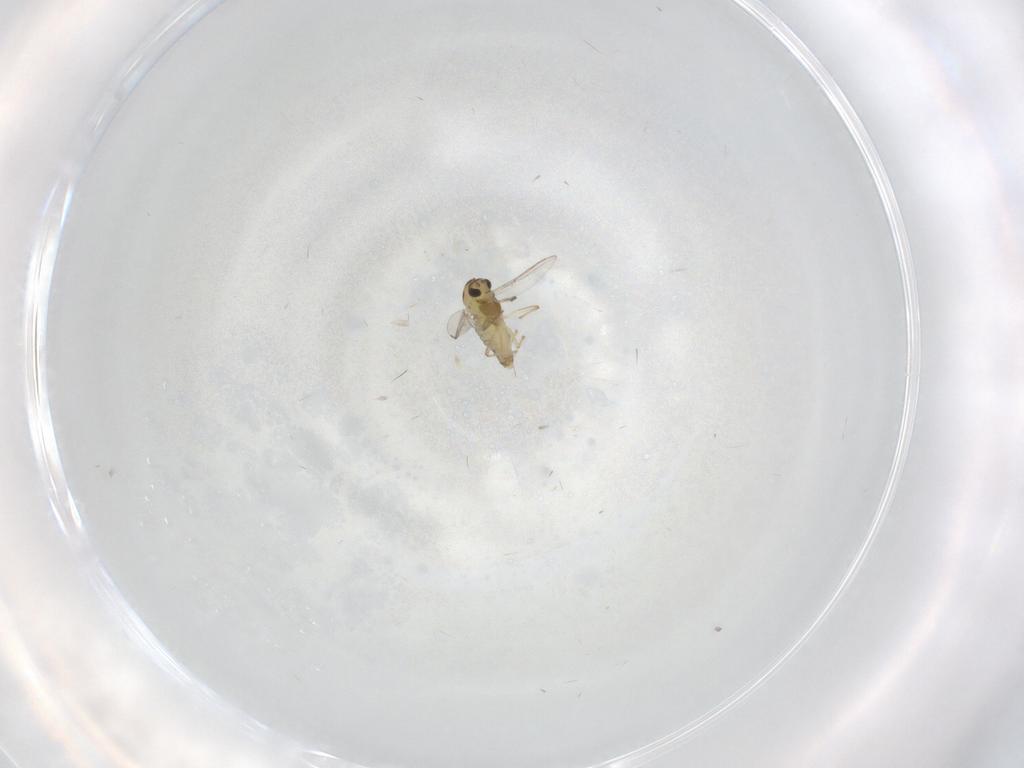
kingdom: Animalia
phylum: Arthropoda
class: Insecta
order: Diptera
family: Chironomidae
